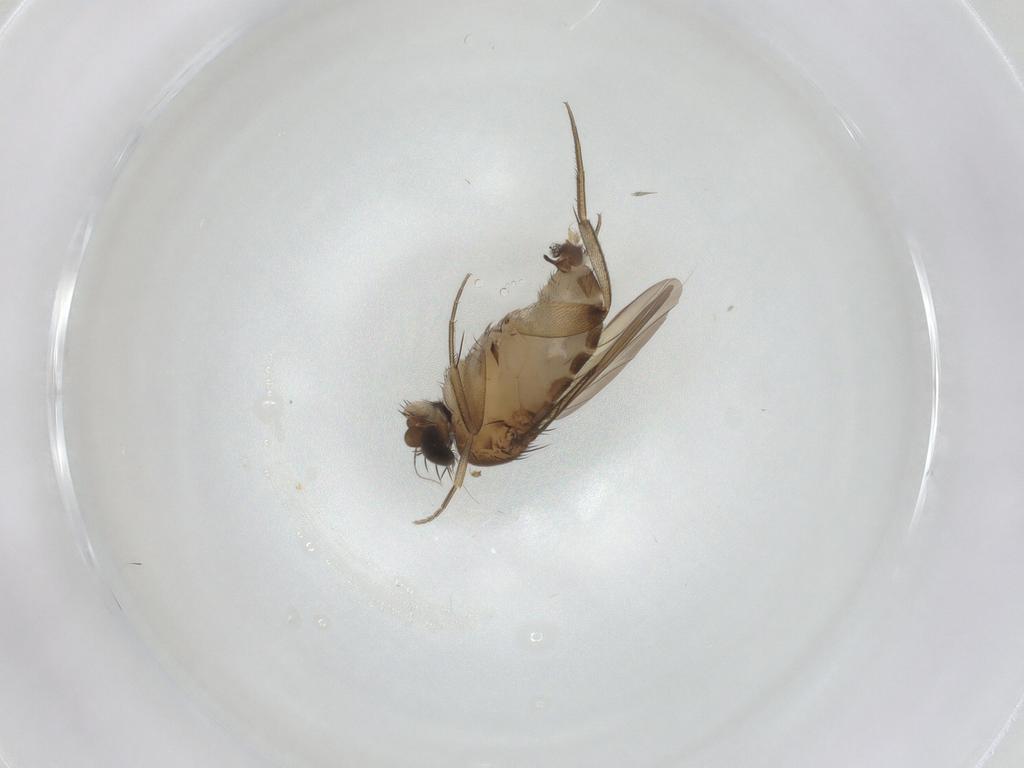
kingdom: Animalia
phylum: Arthropoda
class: Insecta
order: Diptera
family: Phoridae
